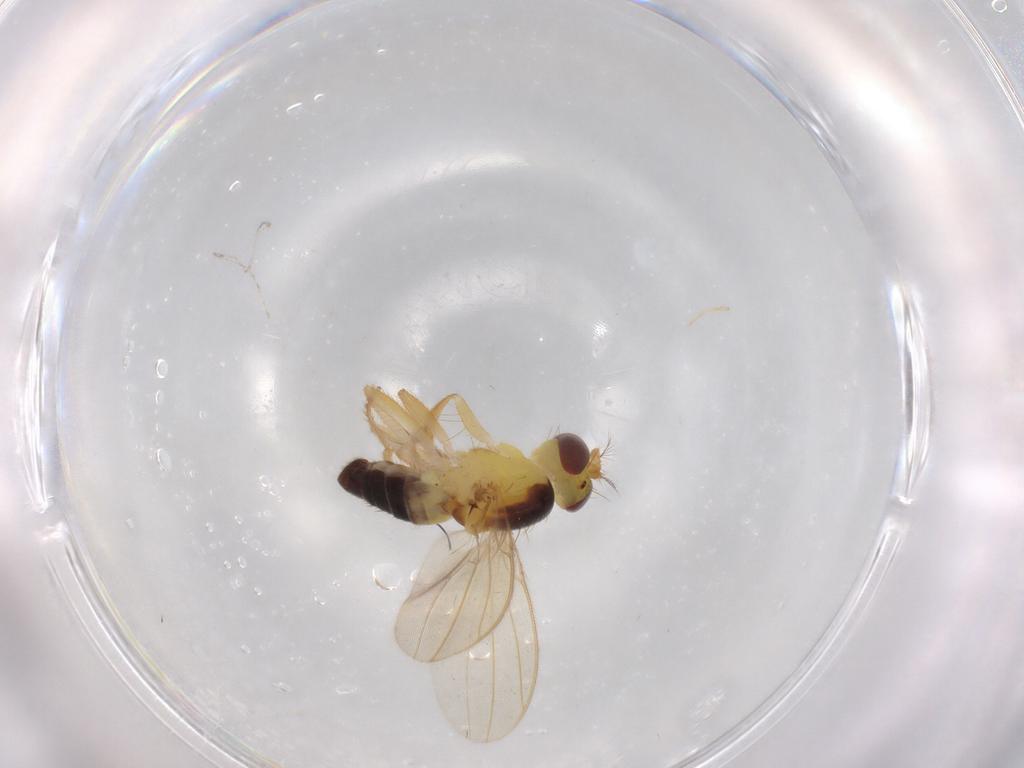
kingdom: Animalia
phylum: Arthropoda
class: Insecta
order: Diptera
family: Periscelididae
